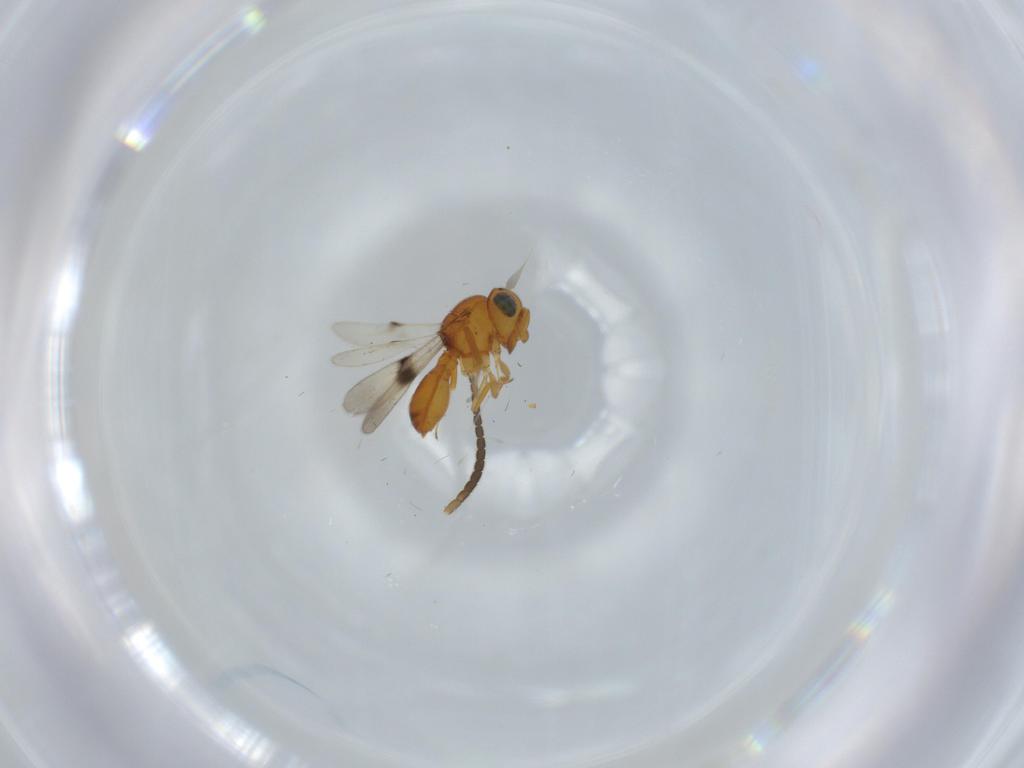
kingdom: Animalia
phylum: Arthropoda
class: Insecta
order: Hymenoptera
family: Scelionidae
